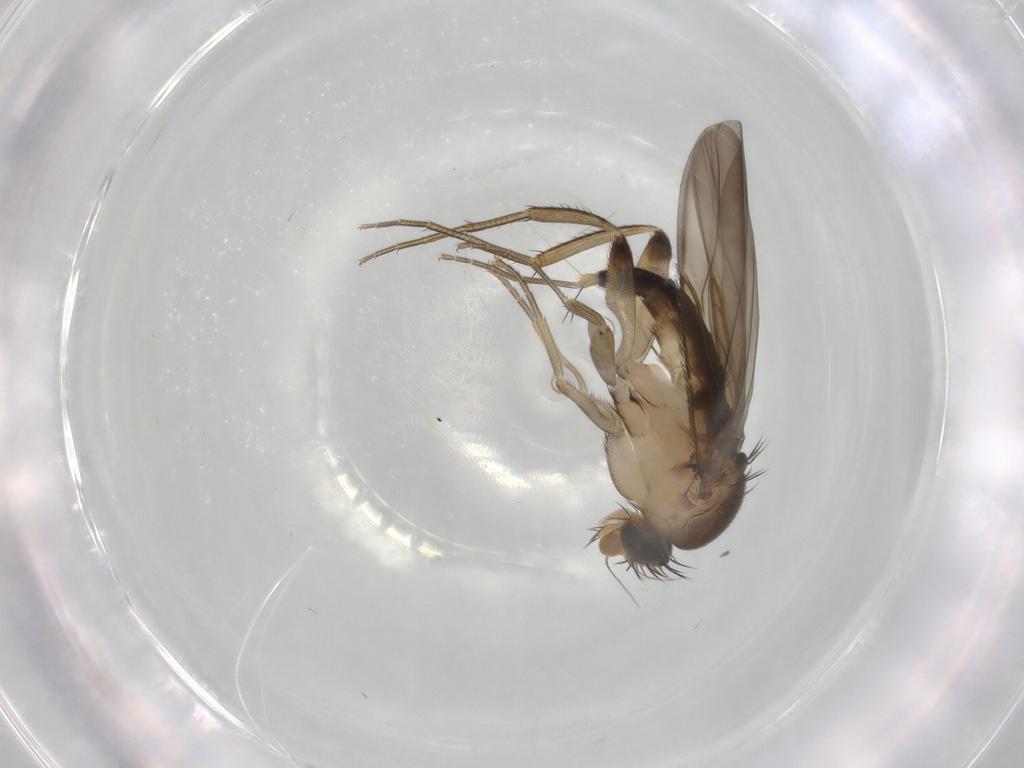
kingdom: Animalia
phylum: Arthropoda
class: Insecta
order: Diptera
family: Phoridae
